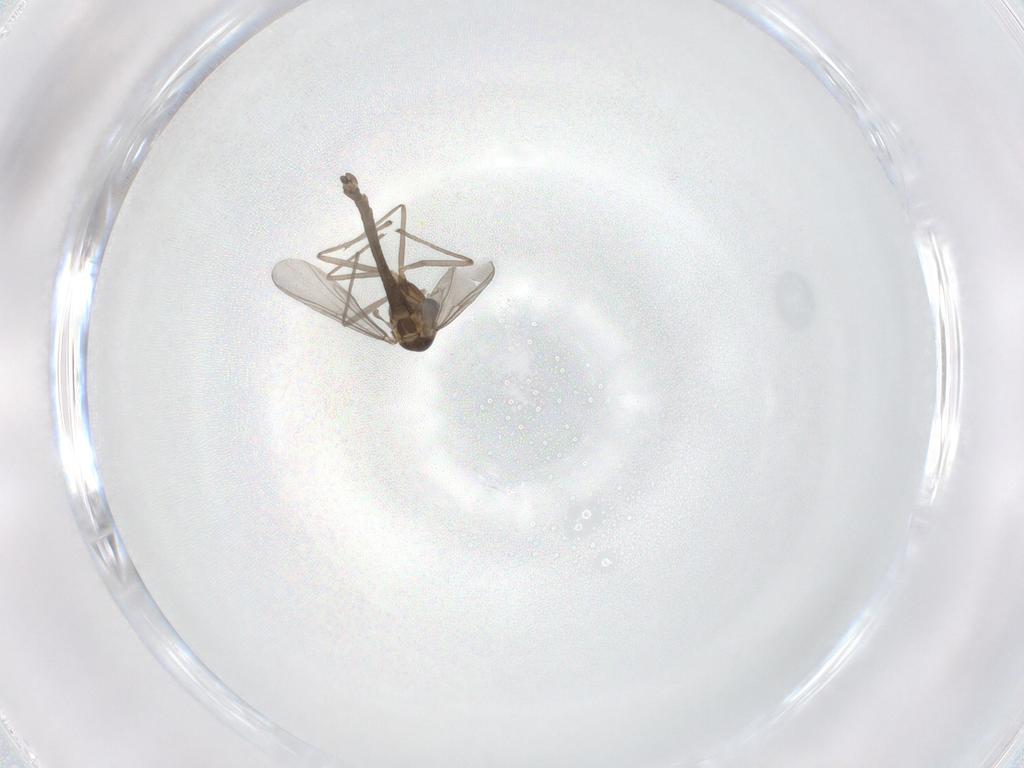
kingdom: Animalia
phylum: Arthropoda
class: Insecta
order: Diptera
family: Chironomidae
